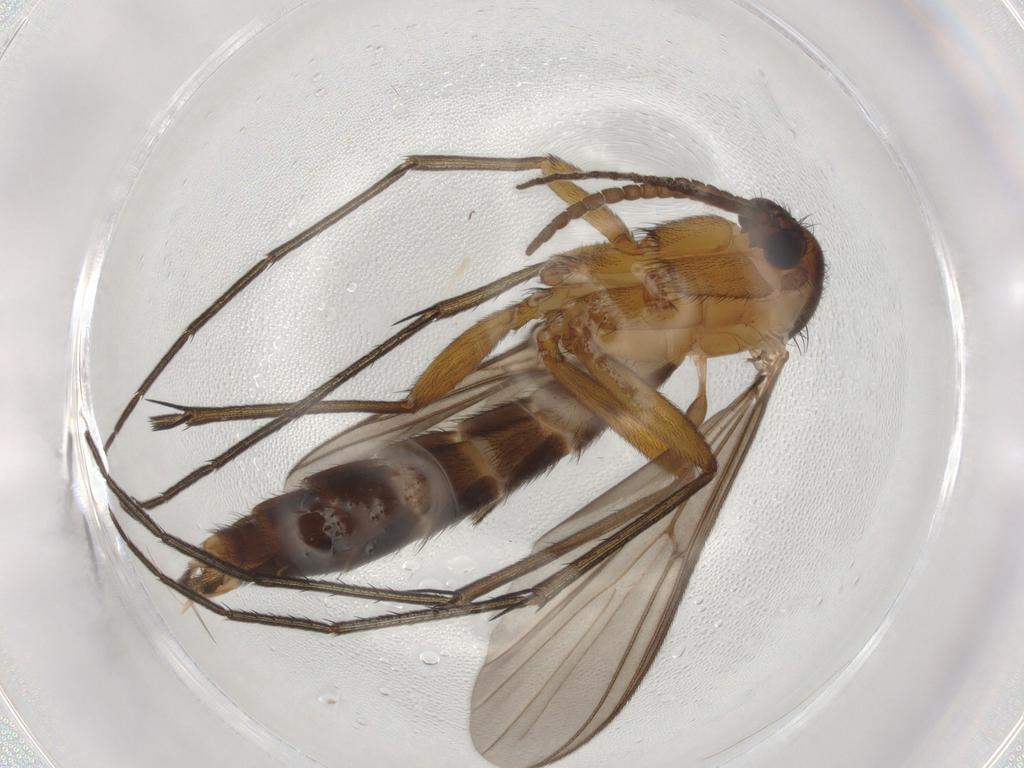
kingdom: Animalia
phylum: Arthropoda
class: Insecta
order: Diptera
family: Mycetophilidae
